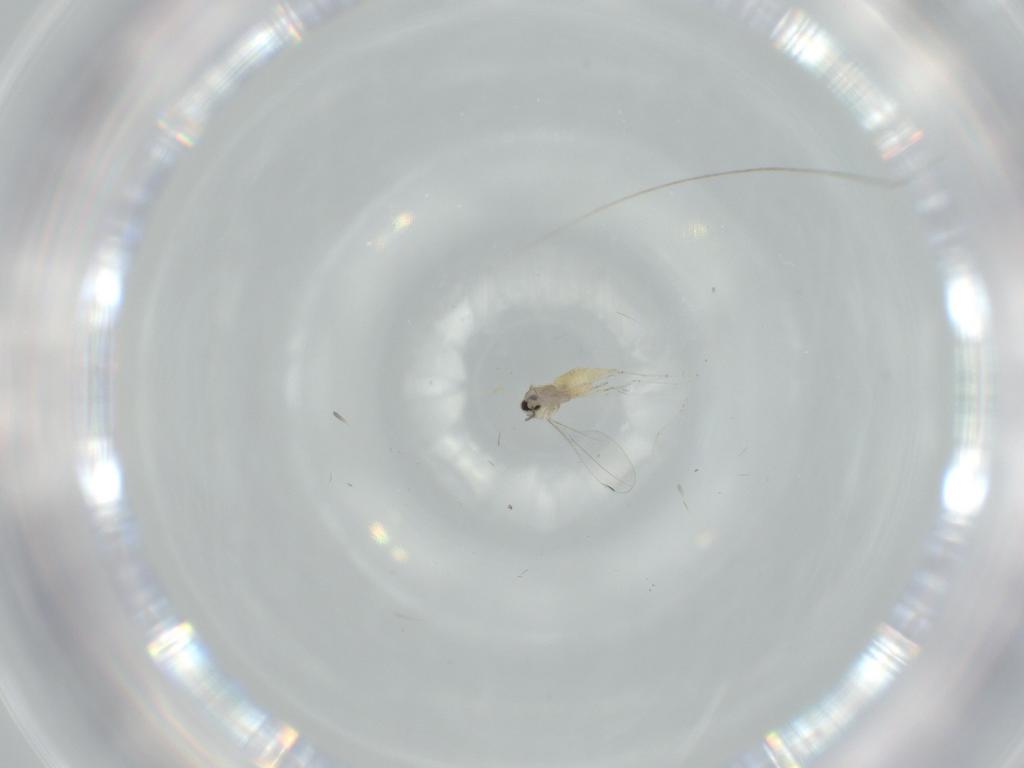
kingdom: Animalia
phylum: Arthropoda
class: Insecta
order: Diptera
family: Cecidomyiidae
